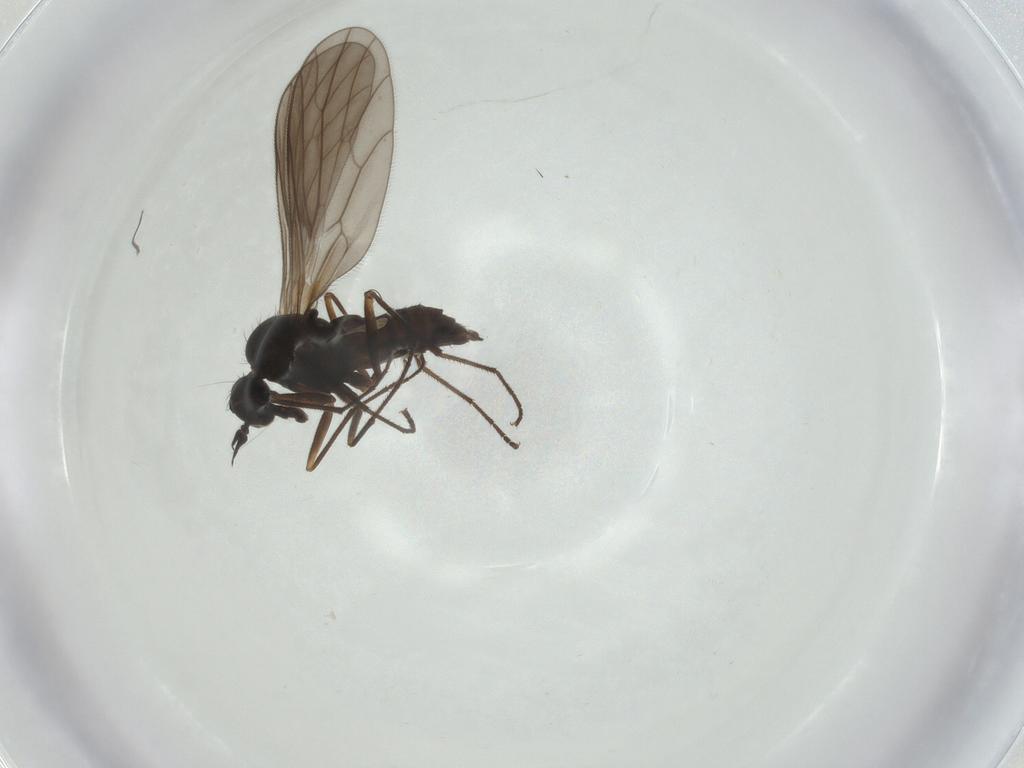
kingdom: Animalia
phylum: Arthropoda
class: Insecta
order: Diptera
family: Empididae
